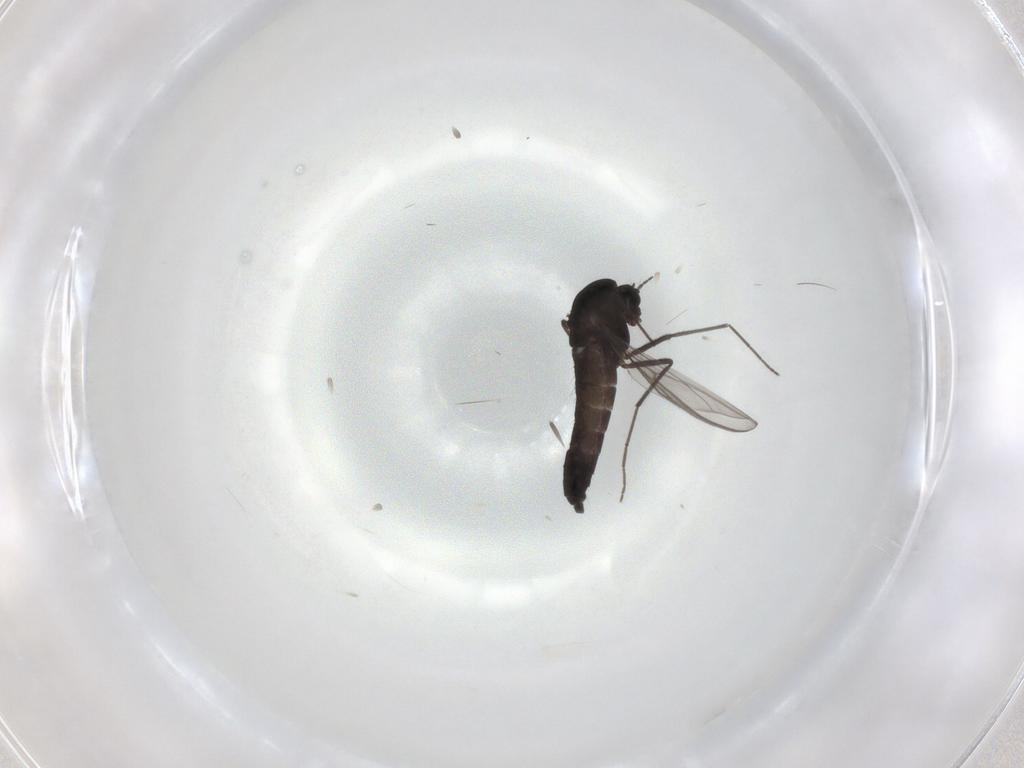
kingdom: Animalia
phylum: Arthropoda
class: Insecta
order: Diptera
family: Chironomidae
